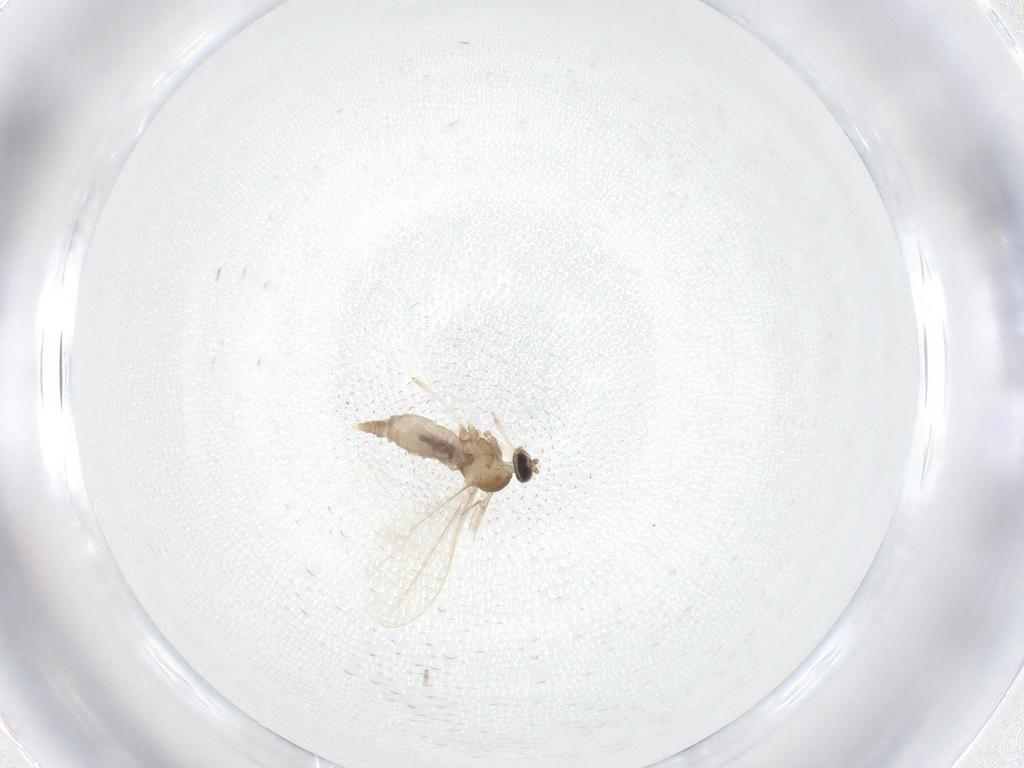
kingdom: Animalia
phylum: Arthropoda
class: Insecta
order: Diptera
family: Cecidomyiidae
